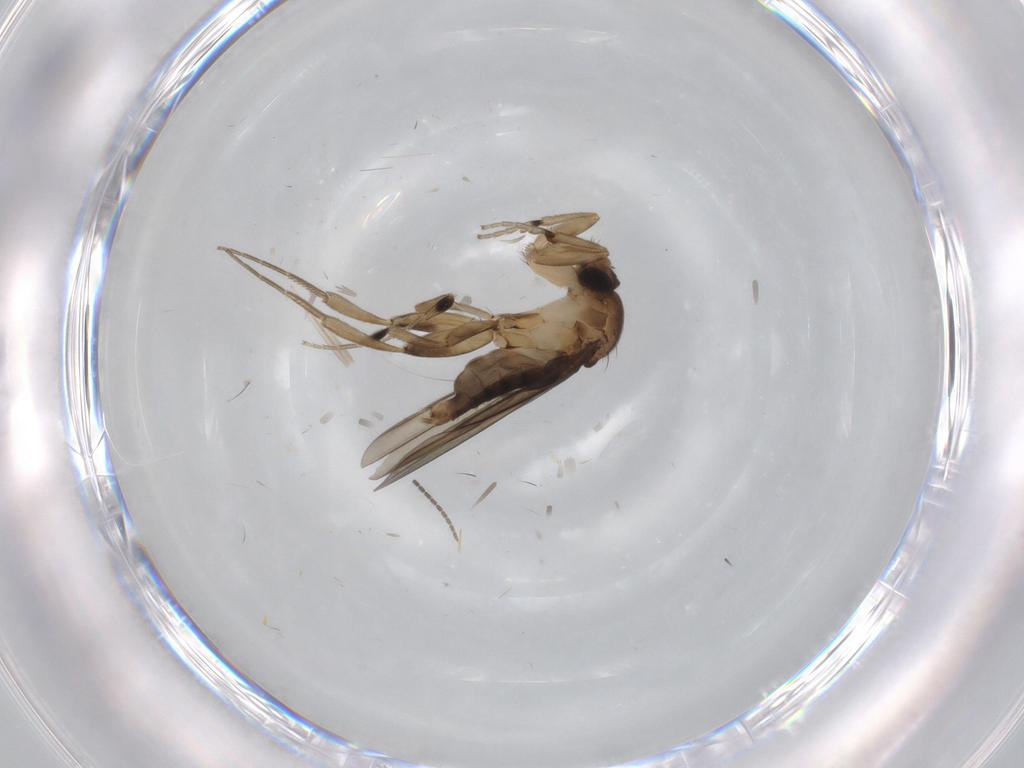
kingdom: Animalia
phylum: Arthropoda
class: Insecta
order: Diptera
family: Phoridae
